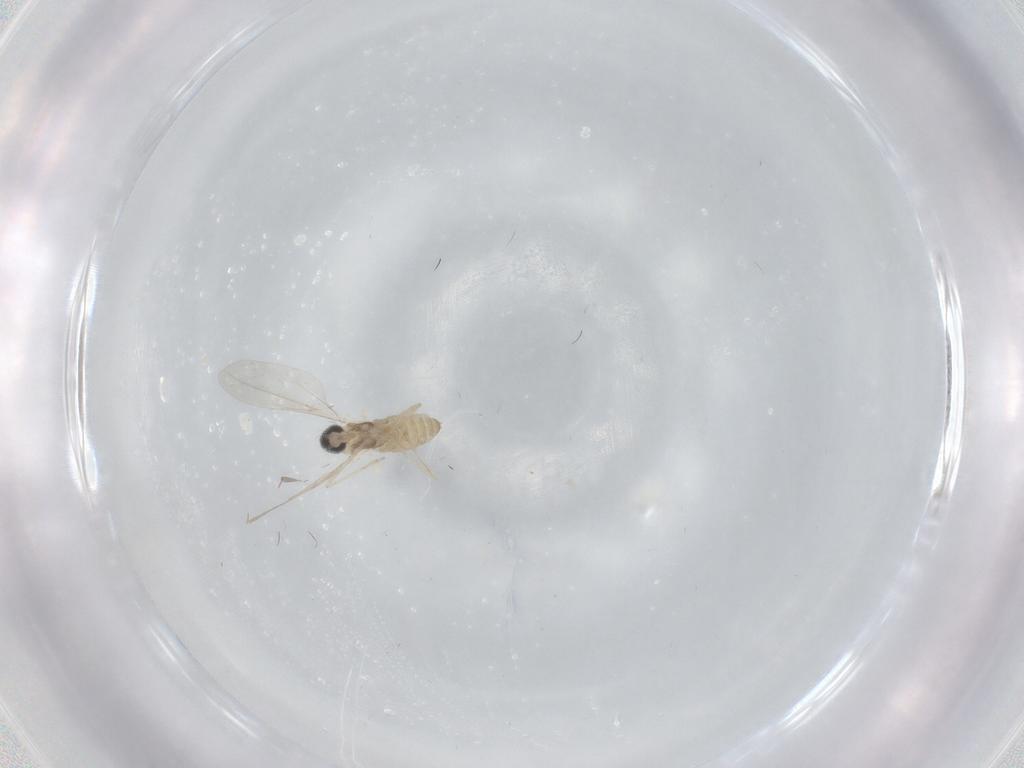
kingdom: Animalia
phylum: Arthropoda
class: Insecta
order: Diptera
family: Cecidomyiidae
